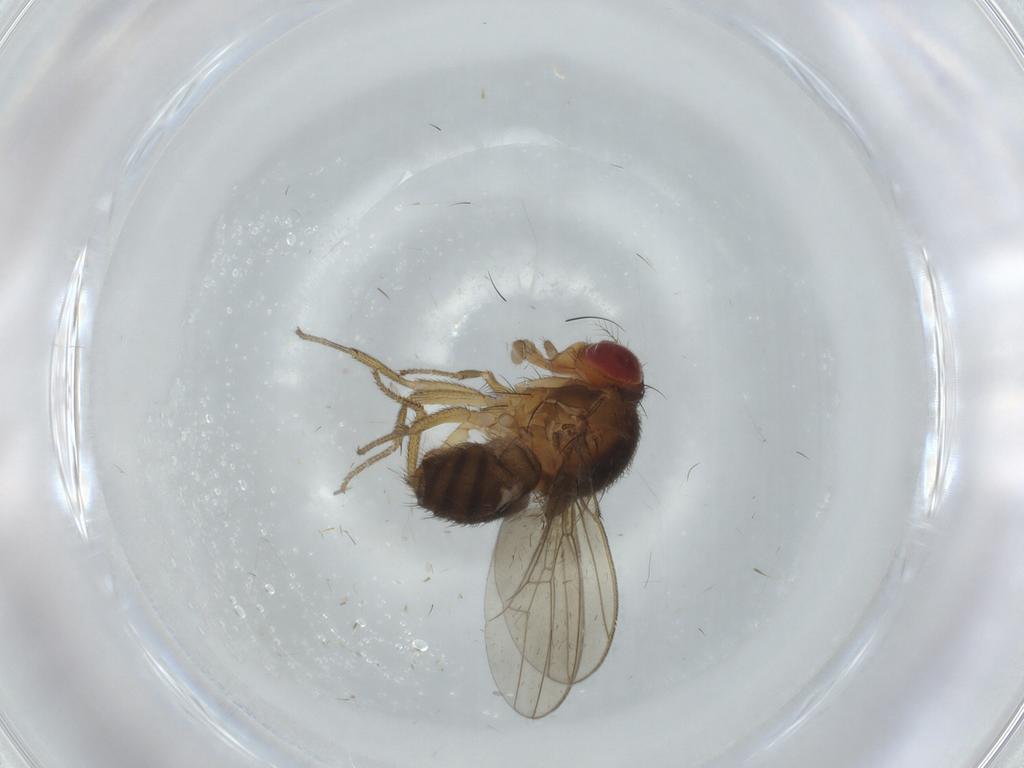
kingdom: Animalia
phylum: Arthropoda
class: Insecta
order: Diptera
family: Drosophilidae
